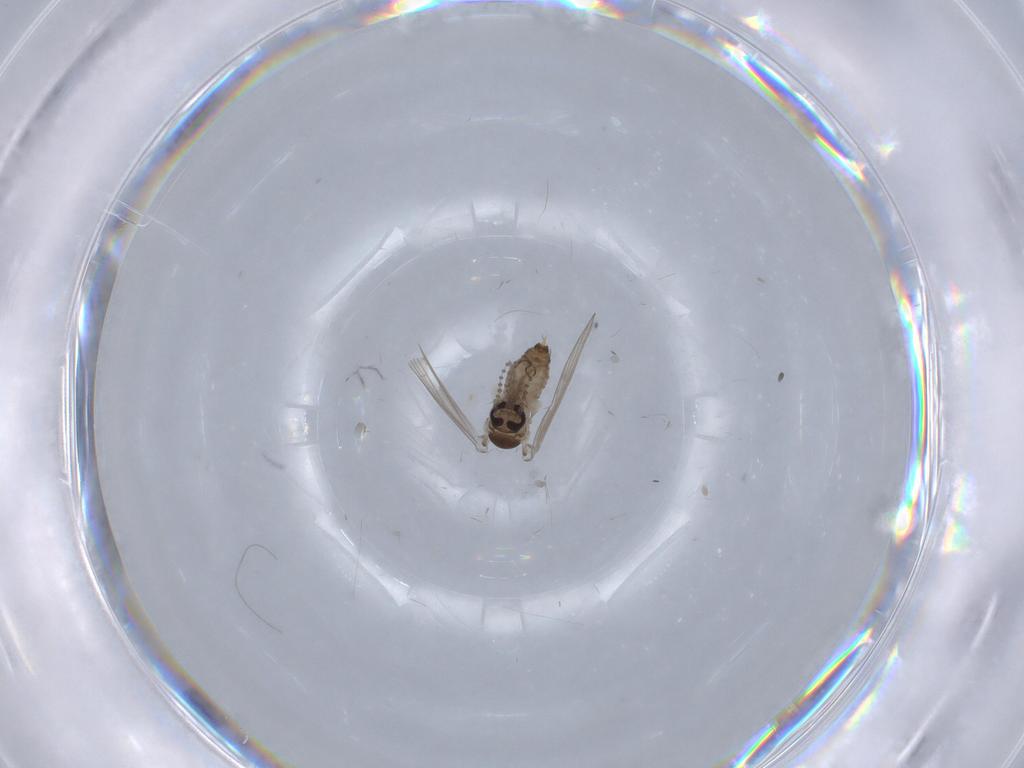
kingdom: Animalia
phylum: Arthropoda
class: Insecta
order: Diptera
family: Psychodidae
